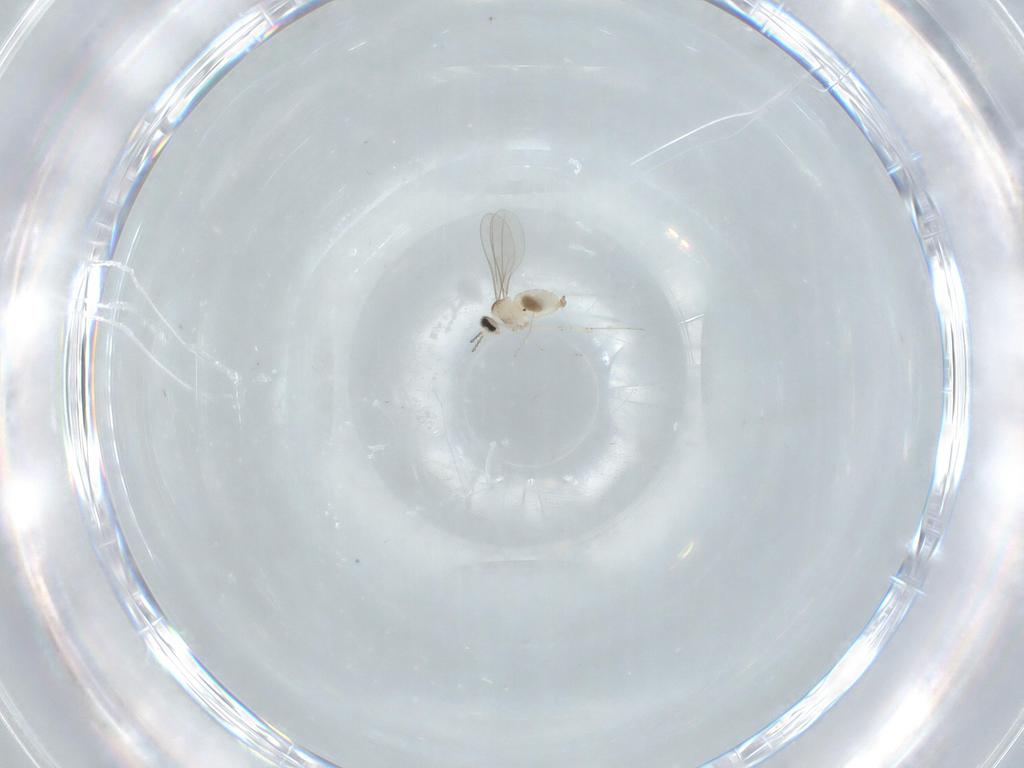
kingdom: Animalia
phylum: Arthropoda
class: Insecta
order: Diptera
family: Cecidomyiidae
